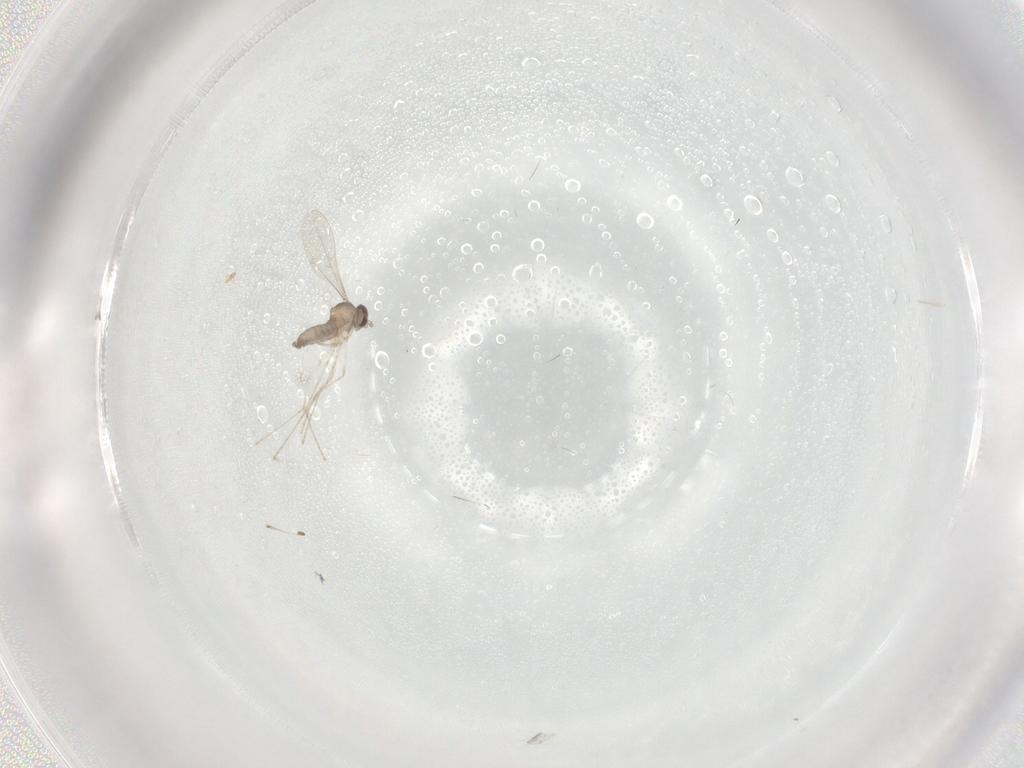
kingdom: Animalia
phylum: Arthropoda
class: Insecta
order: Diptera
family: Cecidomyiidae
